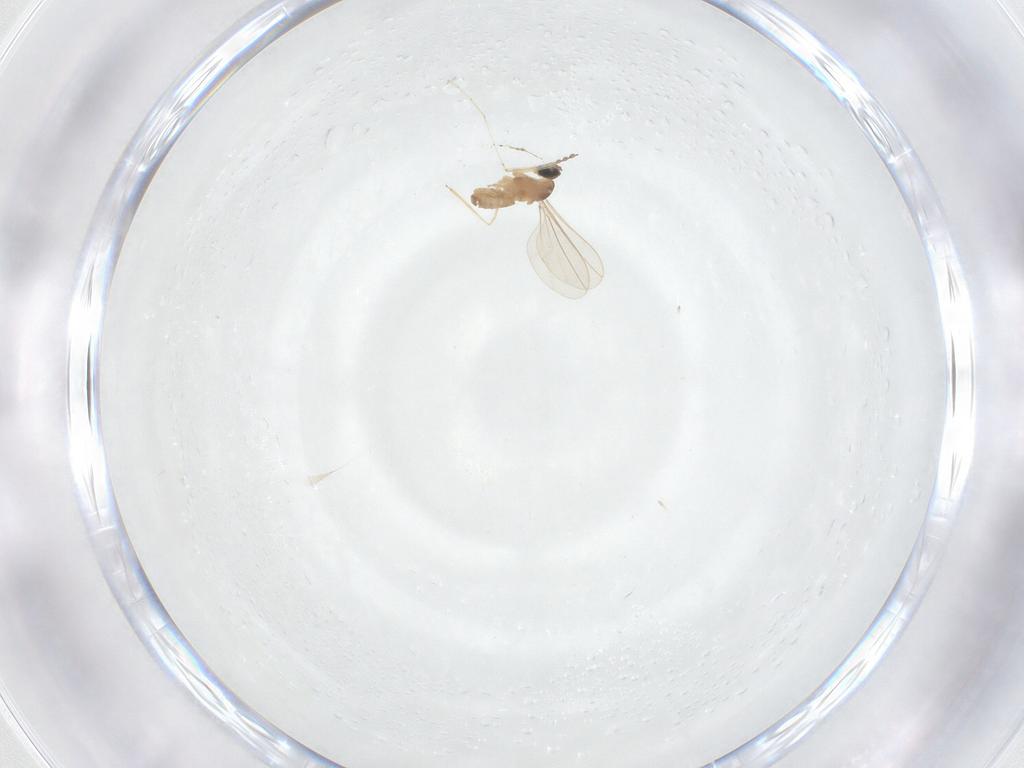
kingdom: Animalia
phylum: Arthropoda
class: Insecta
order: Diptera
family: Cecidomyiidae
